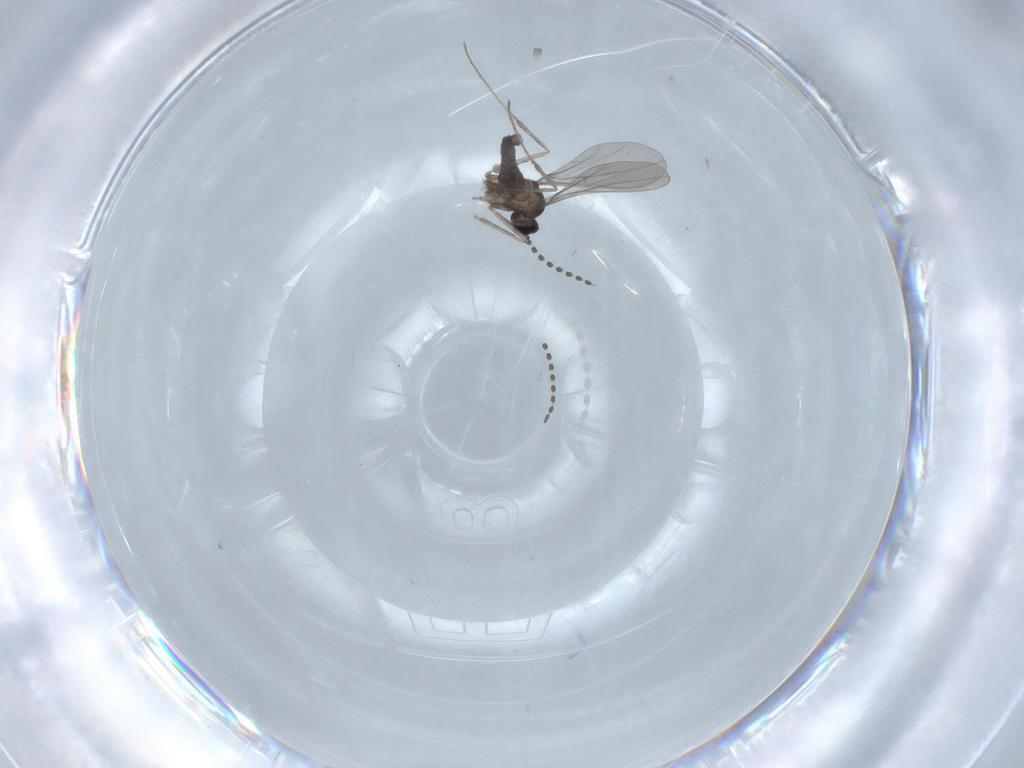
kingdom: Animalia
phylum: Arthropoda
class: Insecta
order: Diptera
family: Cecidomyiidae
